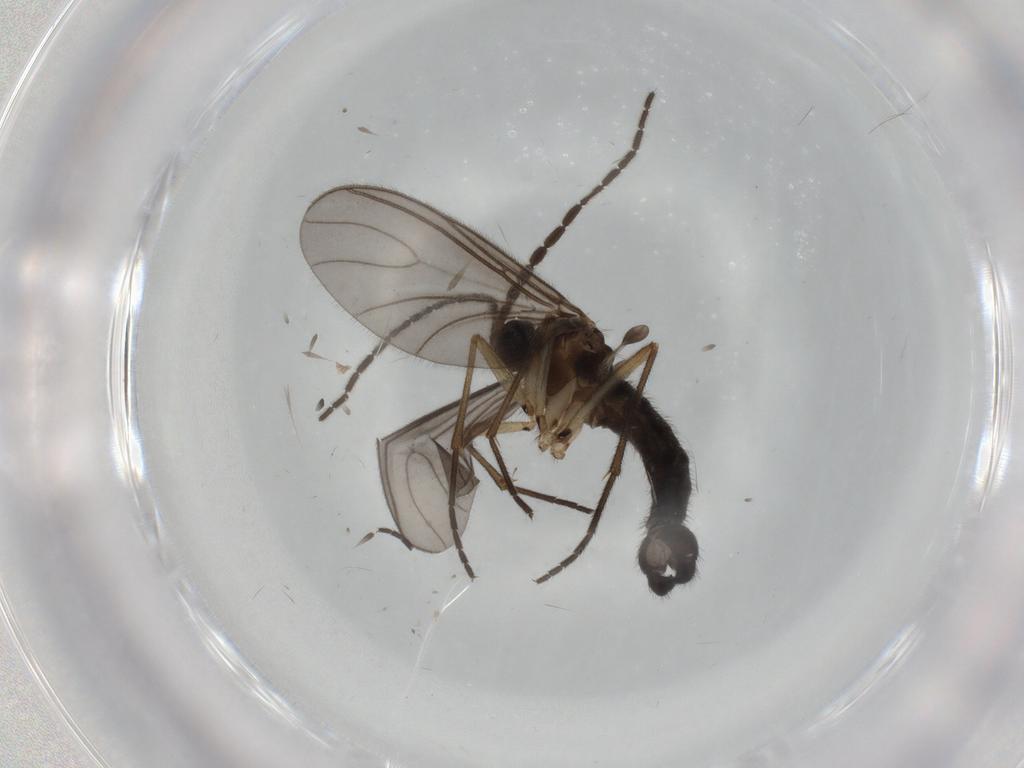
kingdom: Animalia
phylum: Arthropoda
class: Insecta
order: Diptera
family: Sciaridae
